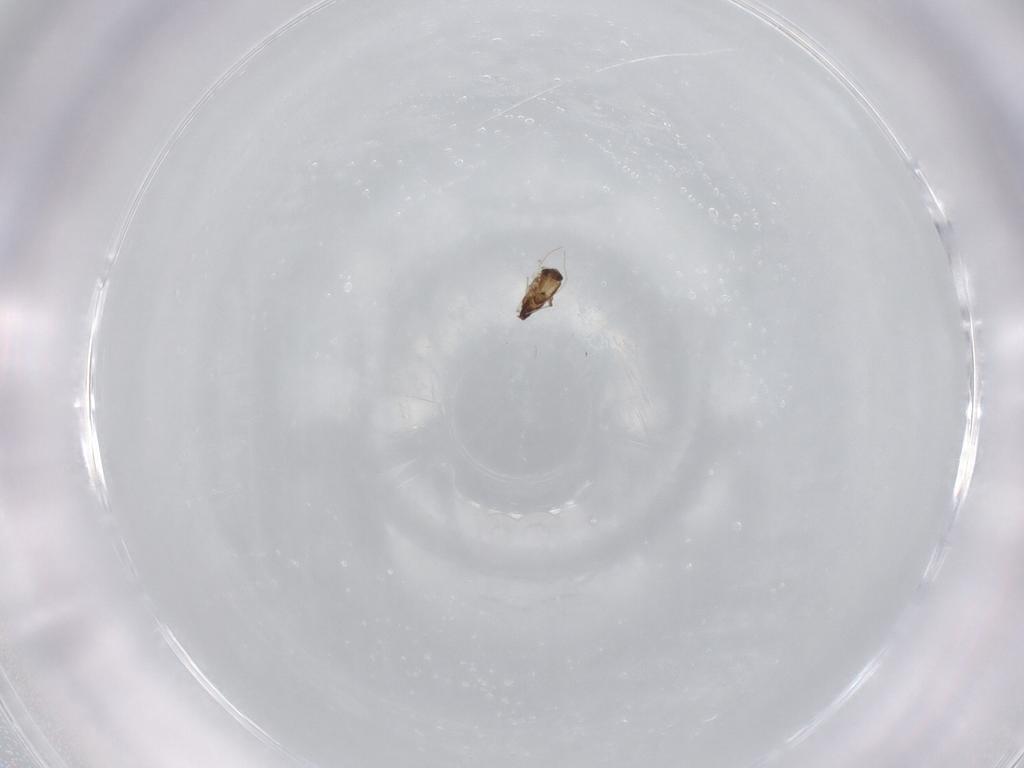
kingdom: Animalia
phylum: Arthropoda
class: Insecta
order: Diptera
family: Chironomidae
